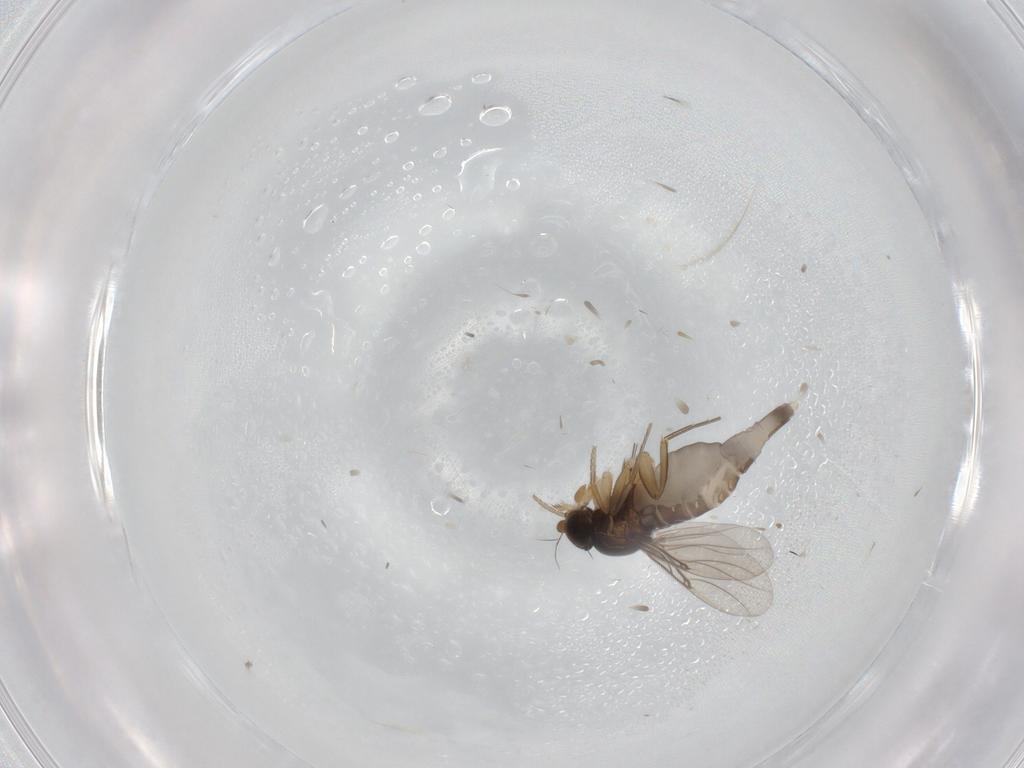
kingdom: Animalia
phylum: Arthropoda
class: Insecta
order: Diptera
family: Phoridae
